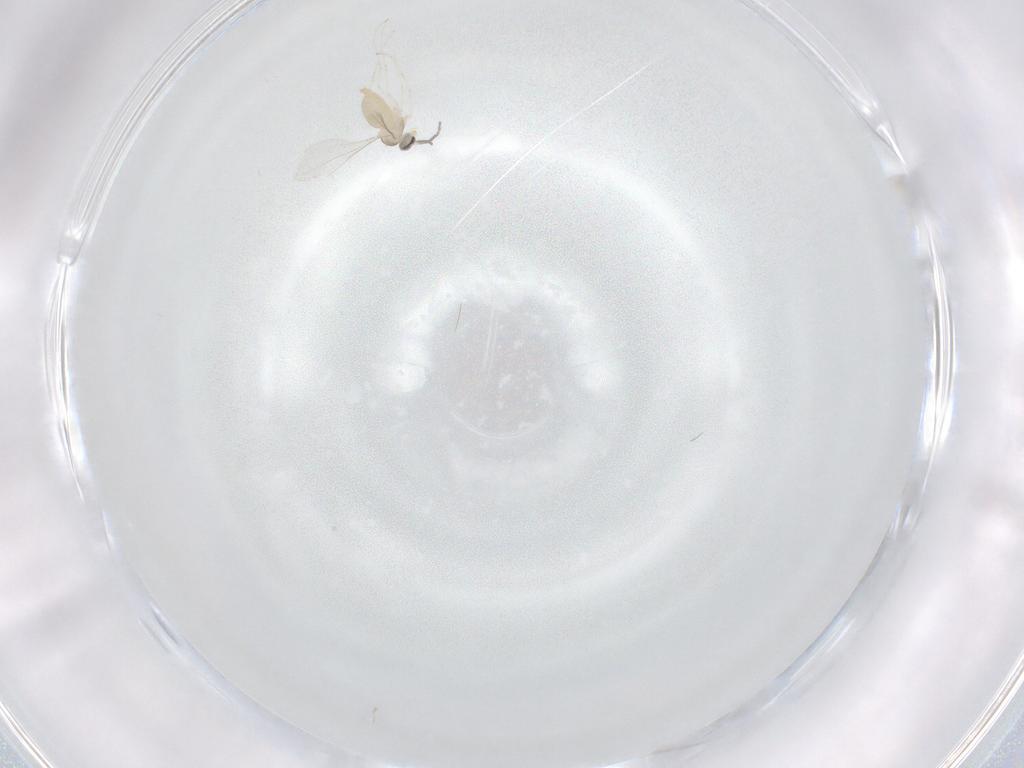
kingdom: Animalia
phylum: Arthropoda
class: Insecta
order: Diptera
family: Cecidomyiidae
